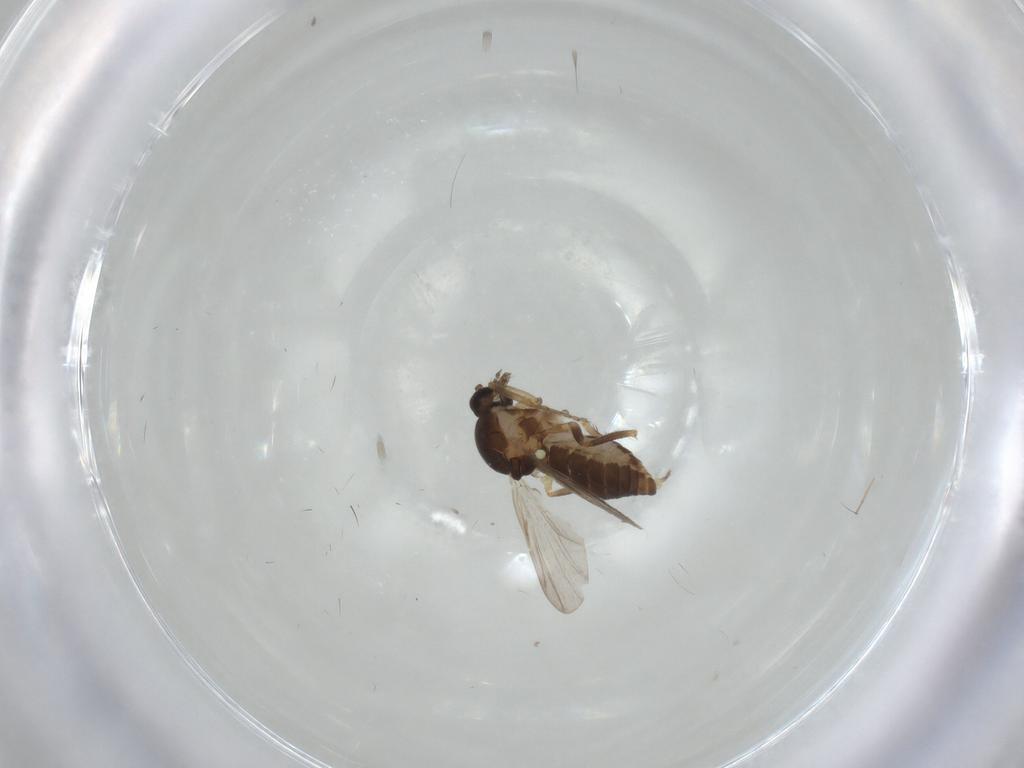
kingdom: Animalia
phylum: Arthropoda
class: Insecta
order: Diptera
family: Ceratopogonidae
